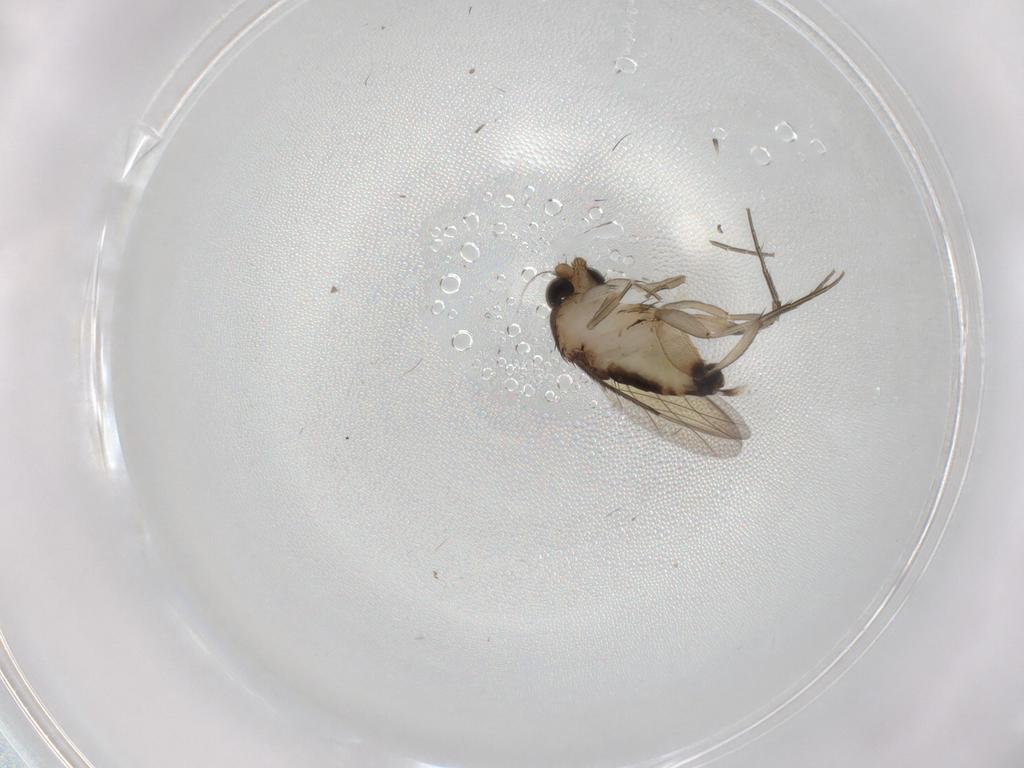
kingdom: Animalia
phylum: Arthropoda
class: Insecta
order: Diptera
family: Phoridae
